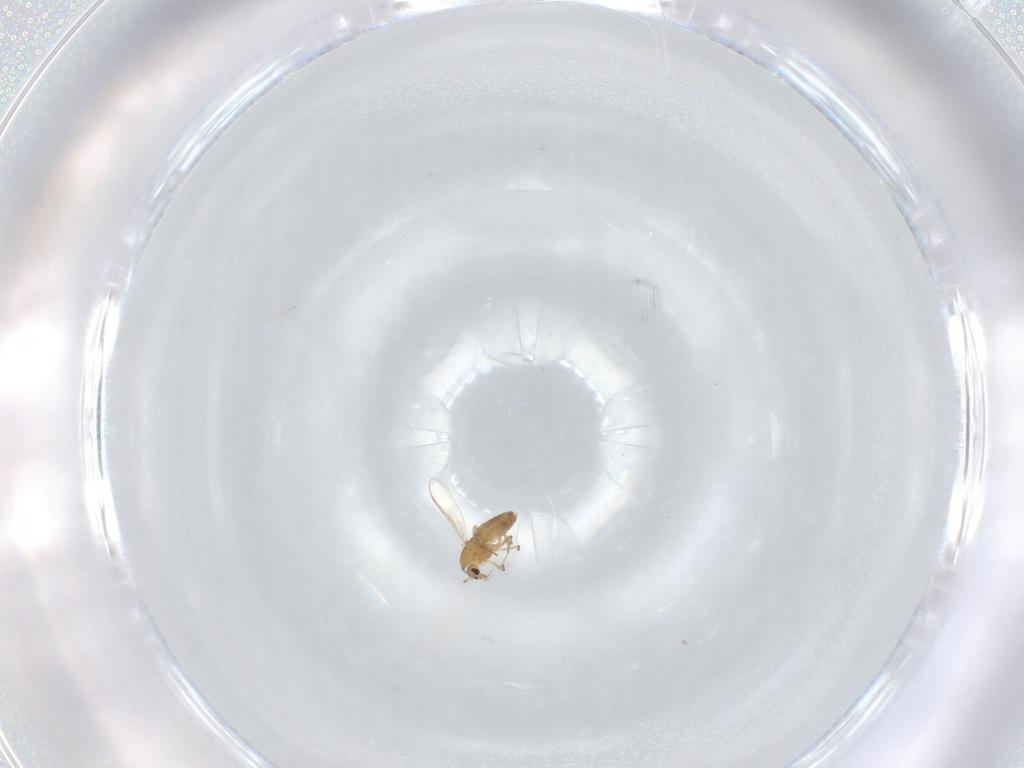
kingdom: Animalia
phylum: Arthropoda
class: Insecta
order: Diptera
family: Chironomidae
